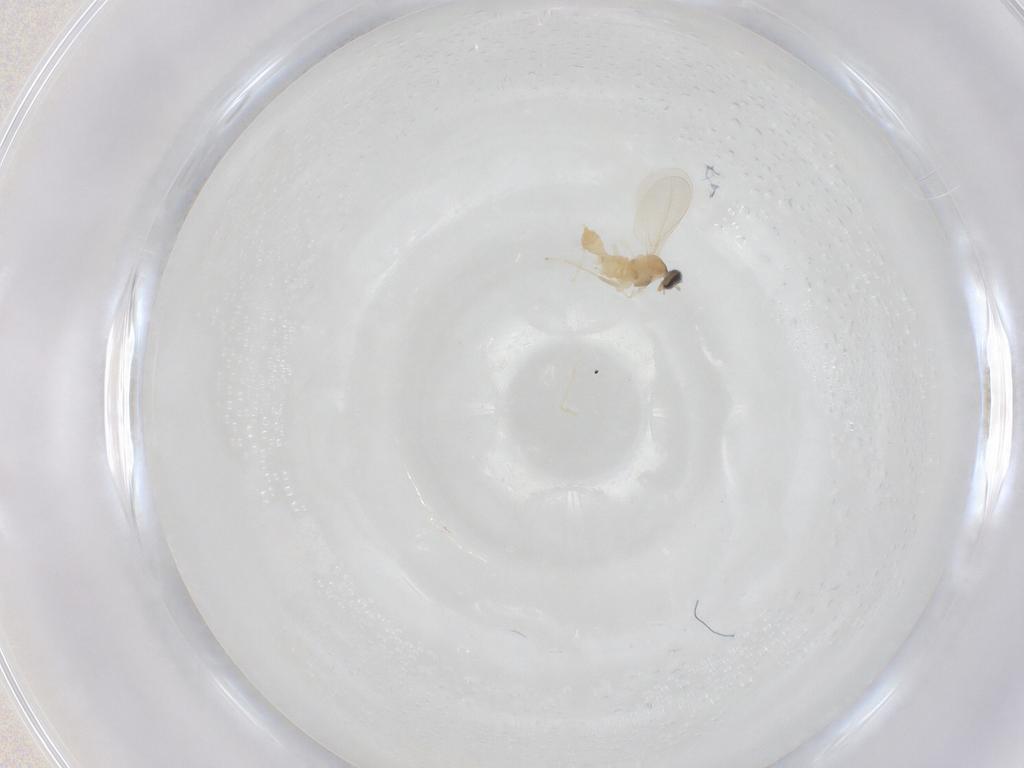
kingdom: Animalia
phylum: Arthropoda
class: Insecta
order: Diptera
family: Cecidomyiidae
